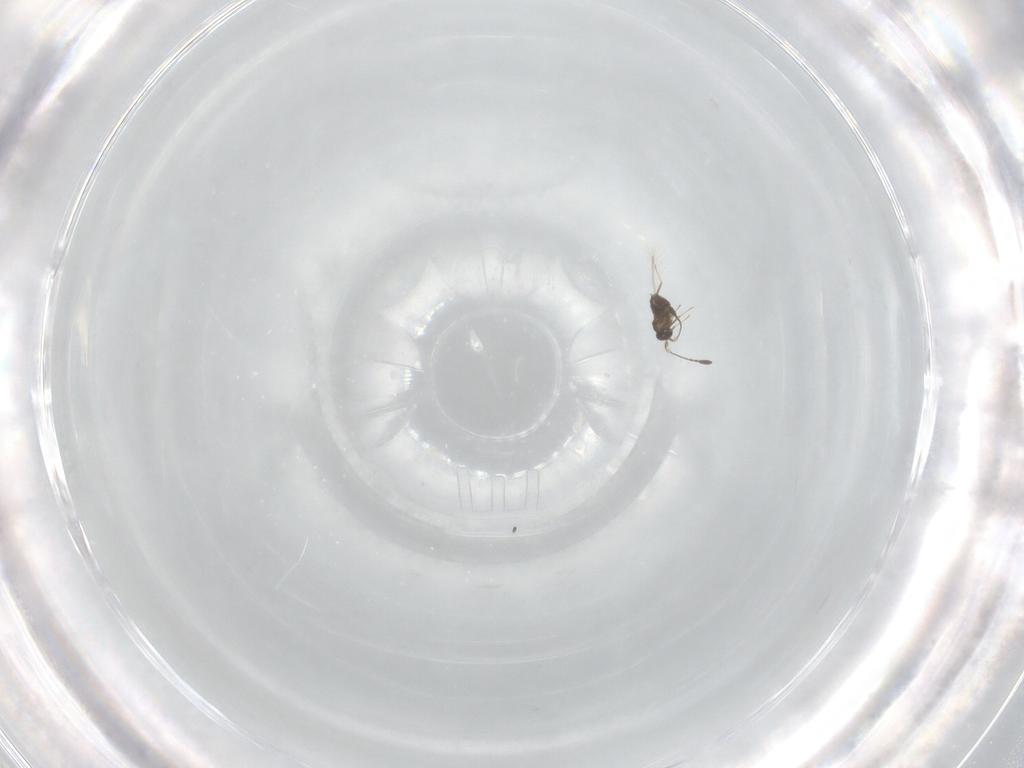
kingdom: Animalia
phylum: Arthropoda
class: Insecta
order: Hymenoptera
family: Mymaridae
